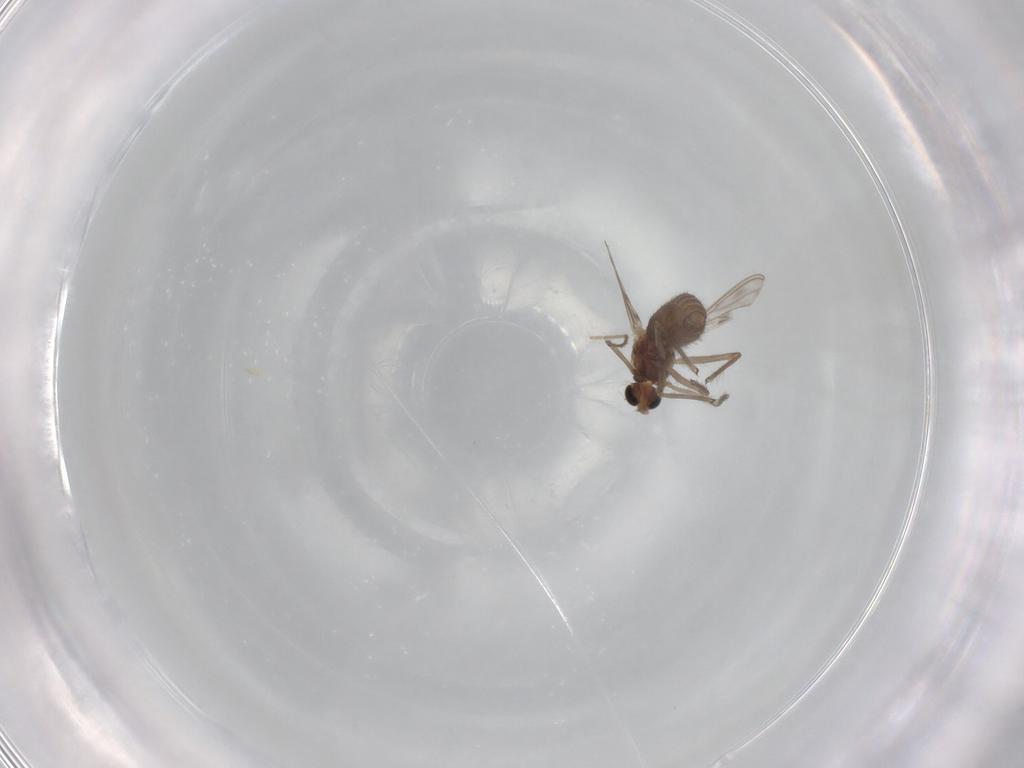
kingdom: Animalia
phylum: Arthropoda
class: Insecta
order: Diptera
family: Chironomidae
